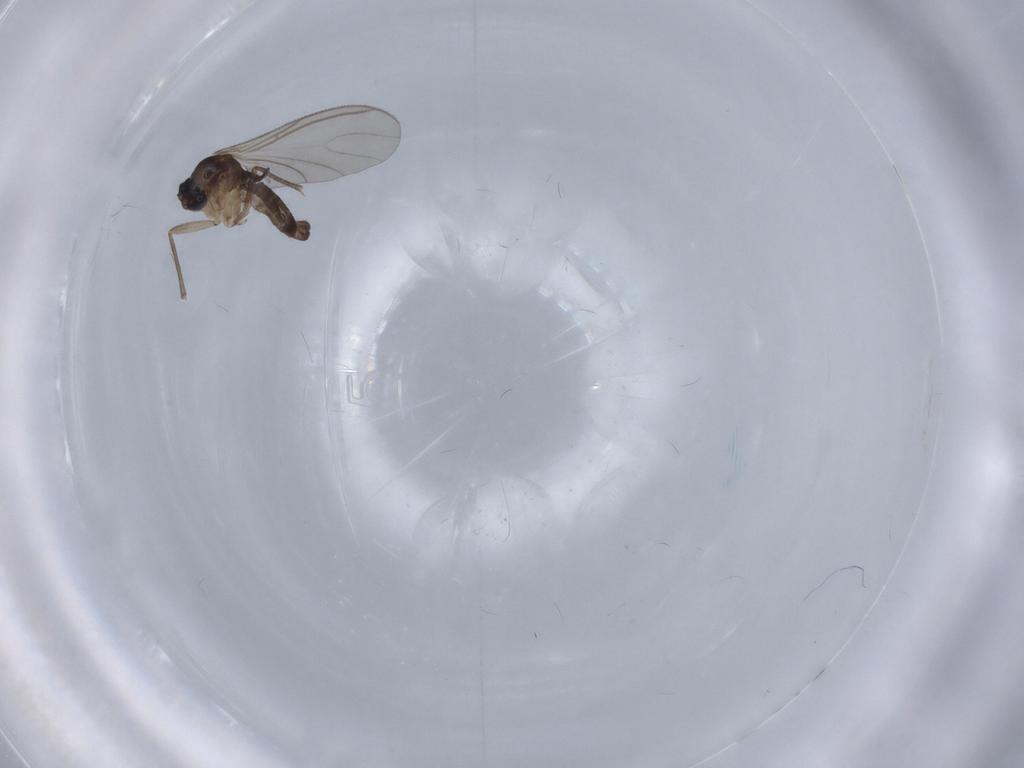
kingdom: Animalia
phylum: Arthropoda
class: Insecta
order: Diptera
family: Sciaridae
